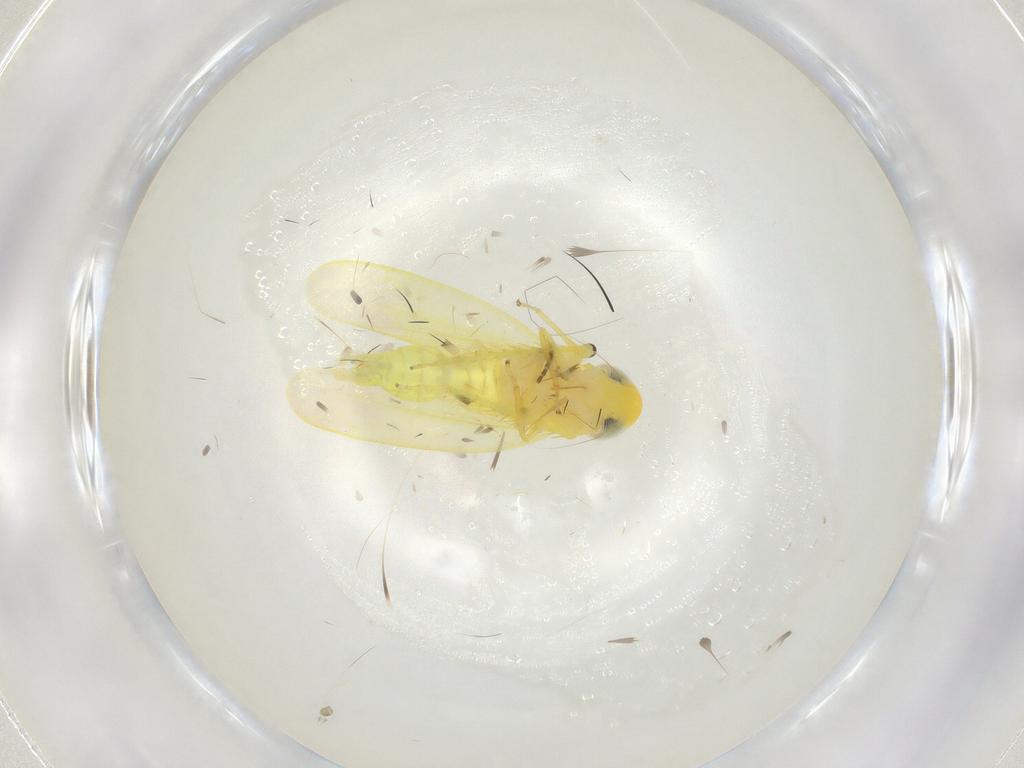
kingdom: Animalia
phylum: Arthropoda
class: Insecta
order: Hemiptera
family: Cicadellidae
